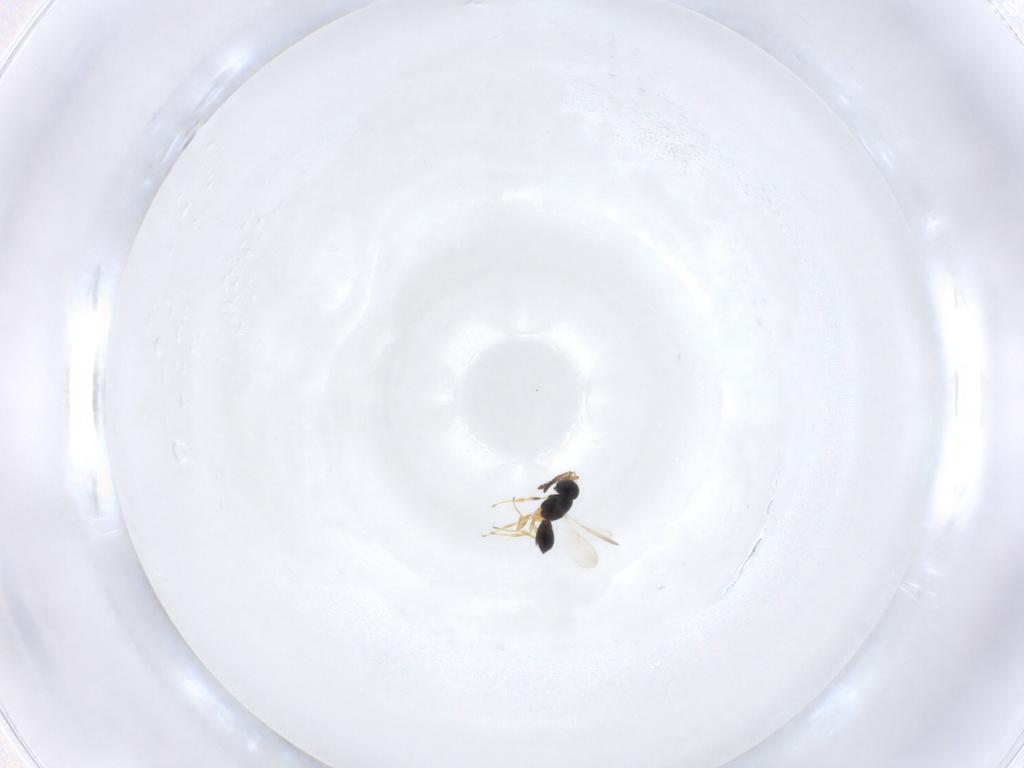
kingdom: Animalia
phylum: Arthropoda
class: Insecta
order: Hymenoptera
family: Scelionidae
